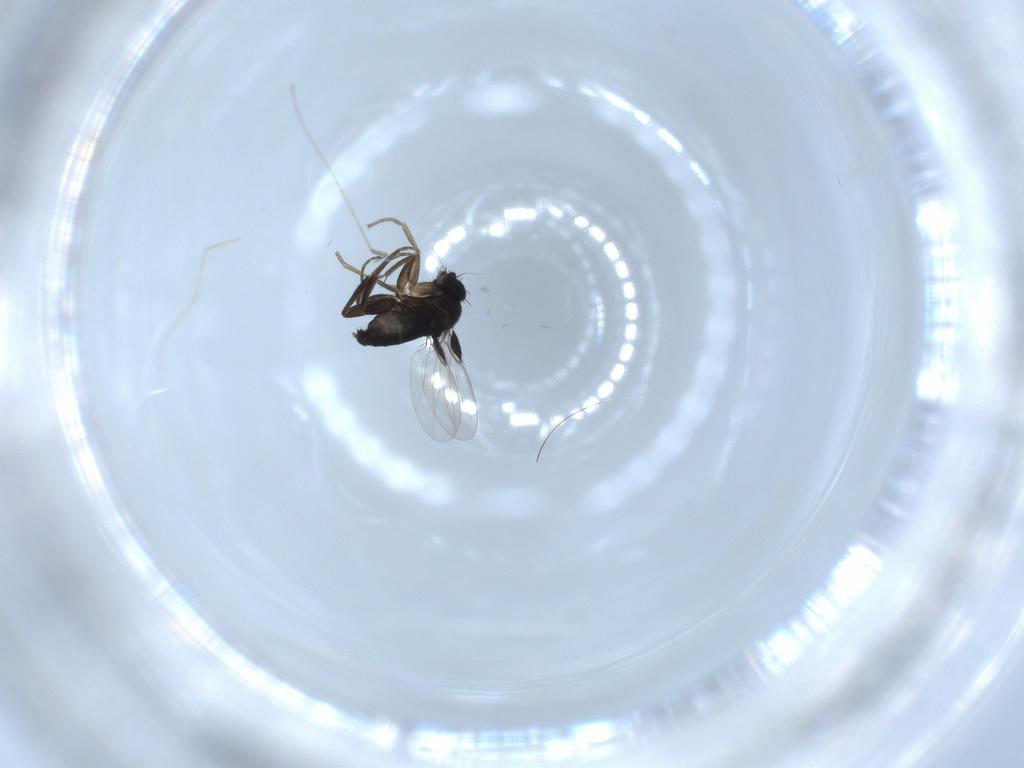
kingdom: Animalia
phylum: Arthropoda
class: Insecta
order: Diptera
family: Phoridae
